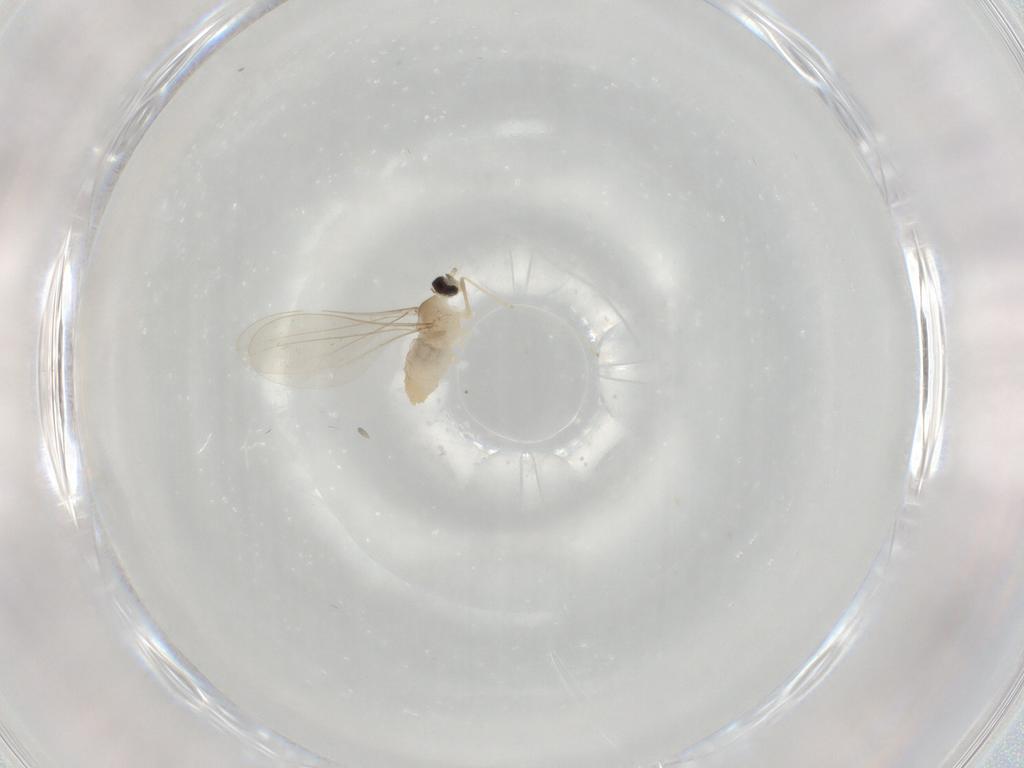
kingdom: Animalia
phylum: Arthropoda
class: Insecta
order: Diptera
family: Cecidomyiidae
